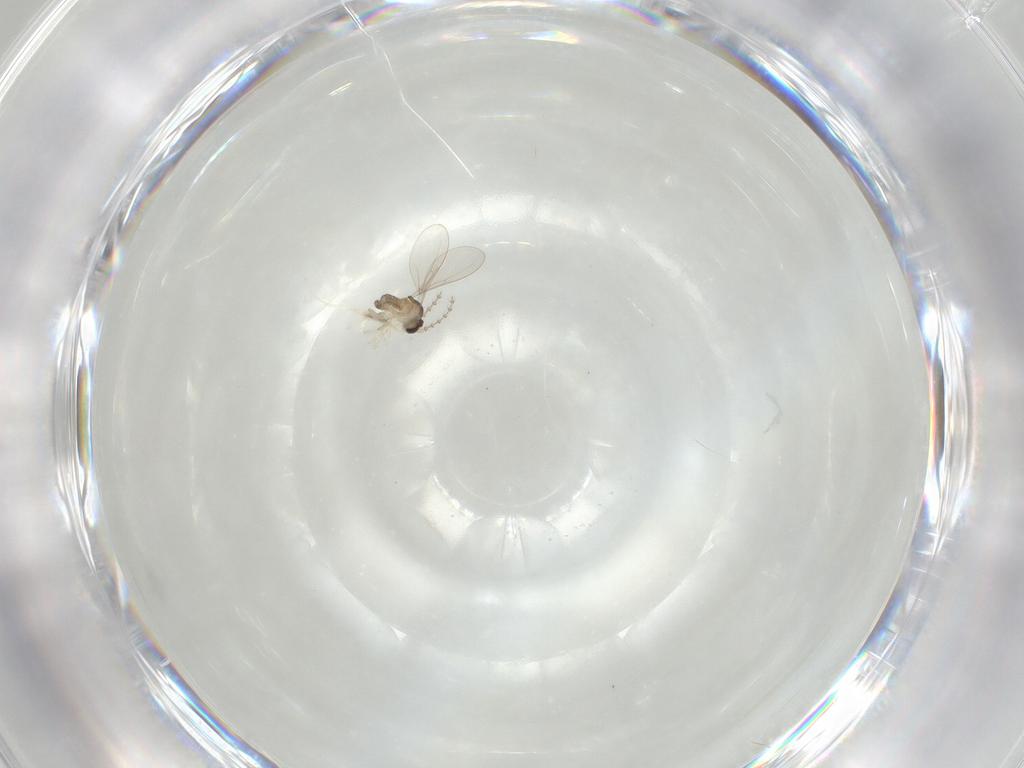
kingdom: Animalia
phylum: Arthropoda
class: Insecta
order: Diptera
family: Cecidomyiidae
